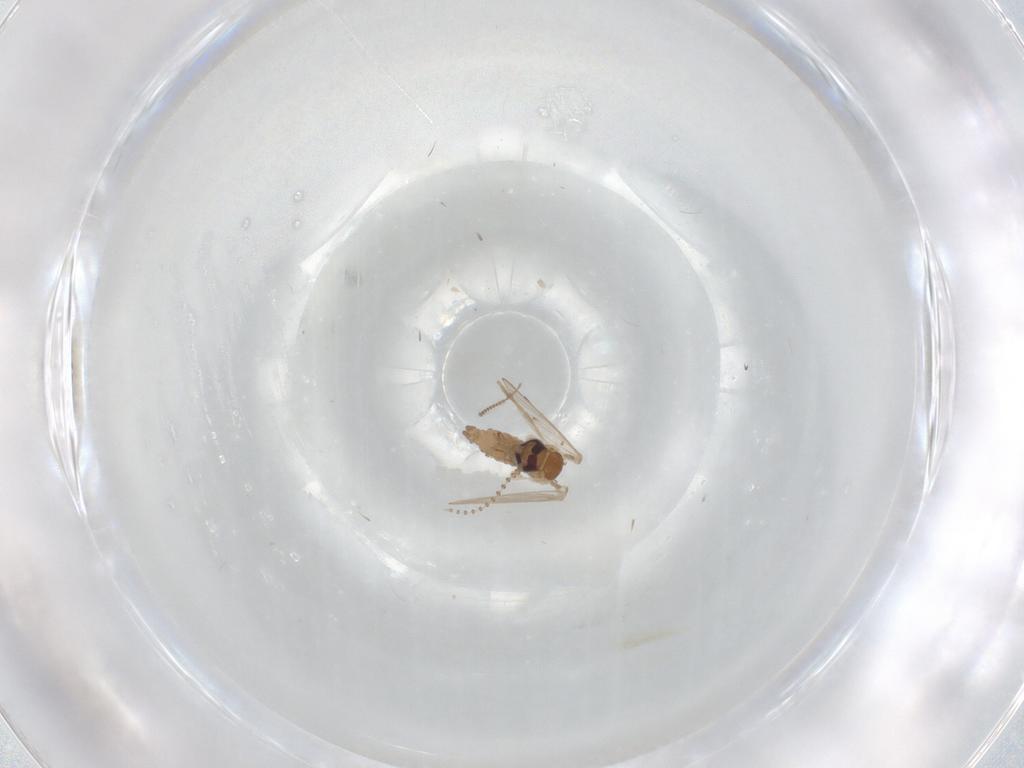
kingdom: Animalia
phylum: Arthropoda
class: Insecta
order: Diptera
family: Psychodidae
